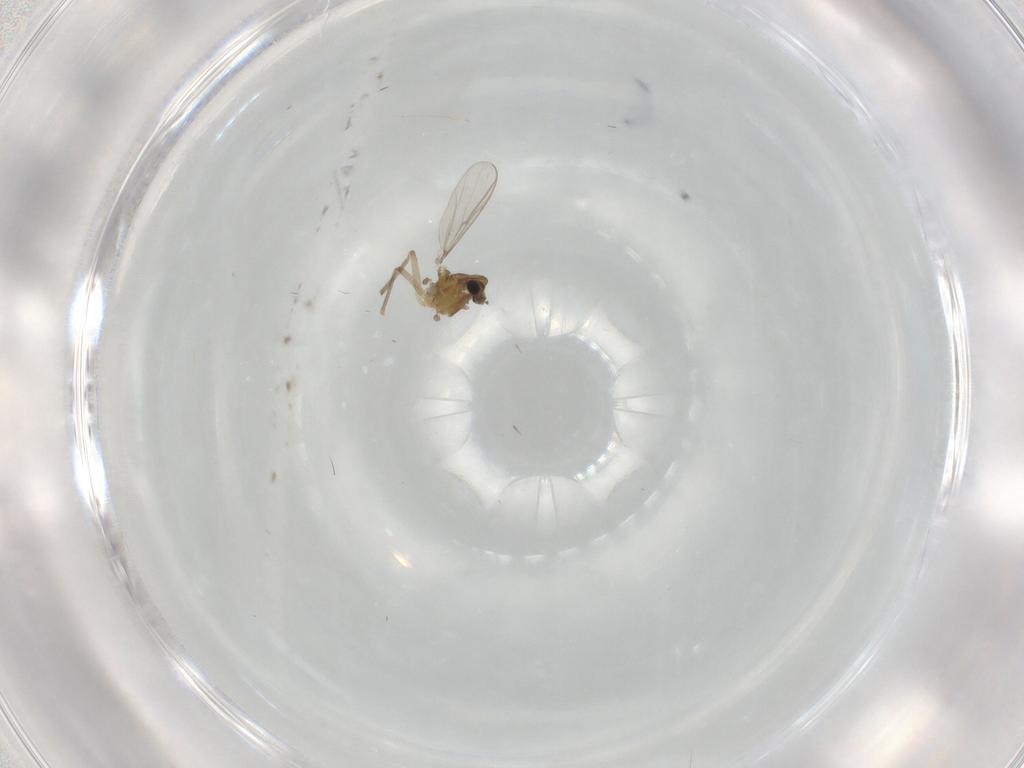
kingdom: Animalia
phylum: Arthropoda
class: Insecta
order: Diptera
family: Chironomidae
